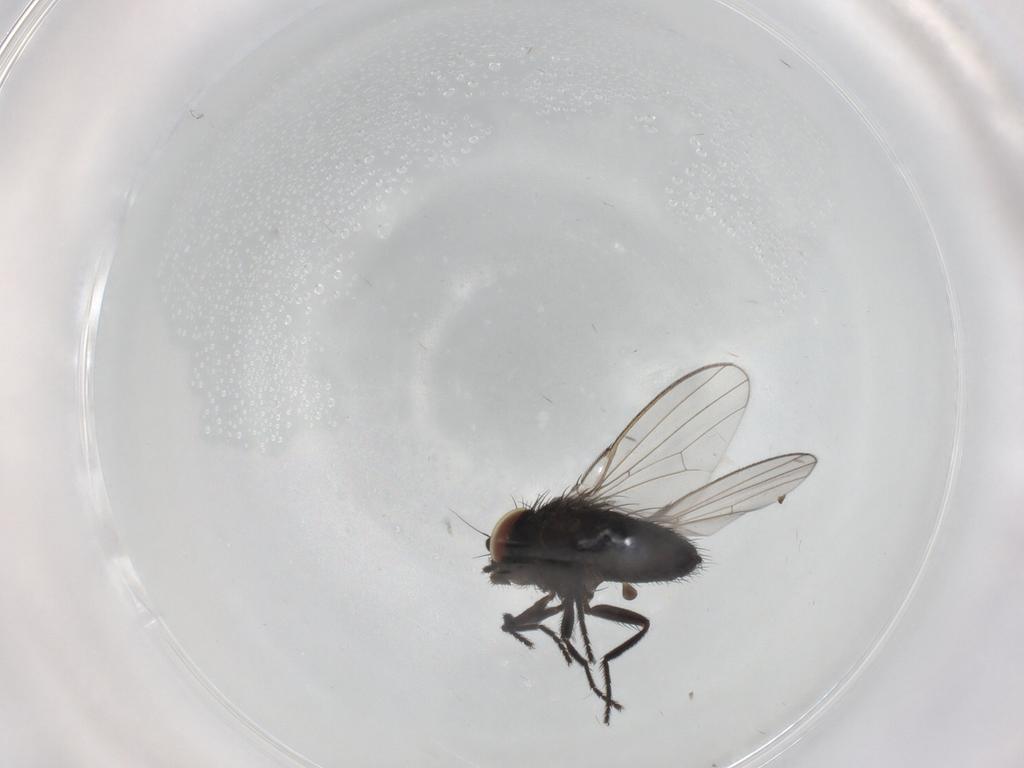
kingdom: Animalia
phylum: Arthropoda
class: Insecta
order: Diptera
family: Milichiidae
